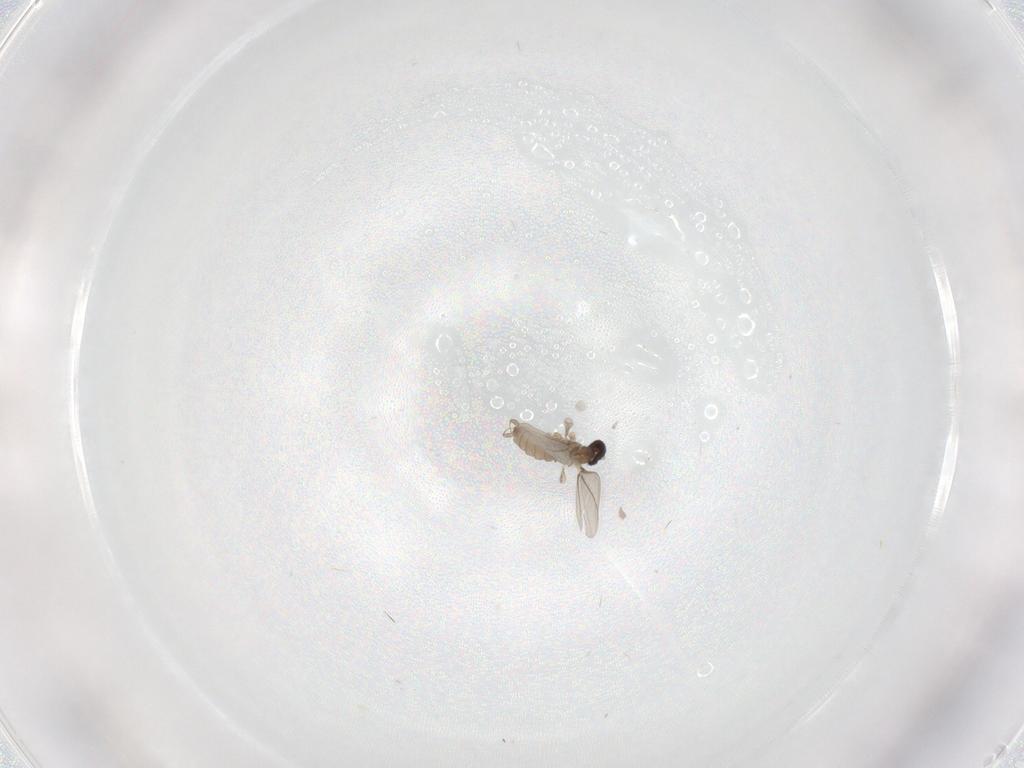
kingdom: Animalia
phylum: Arthropoda
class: Insecta
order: Diptera
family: Cecidomyiidae
